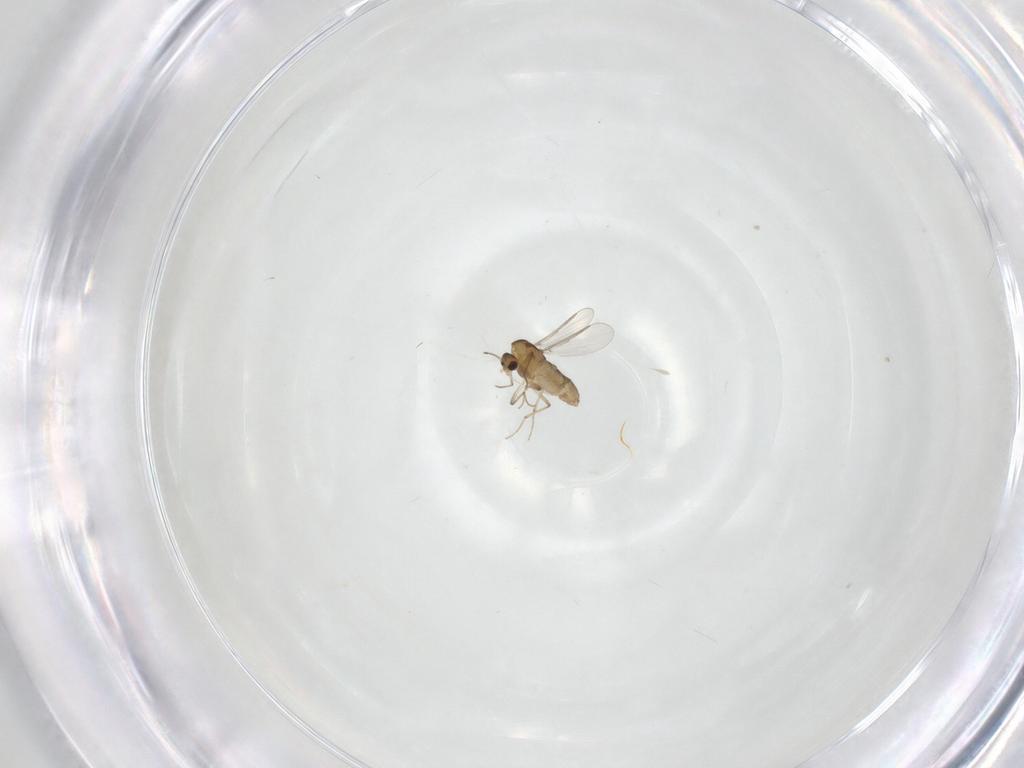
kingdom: Animalia
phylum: Arthropoda
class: Insecta
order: Diptera
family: Chironomidae
